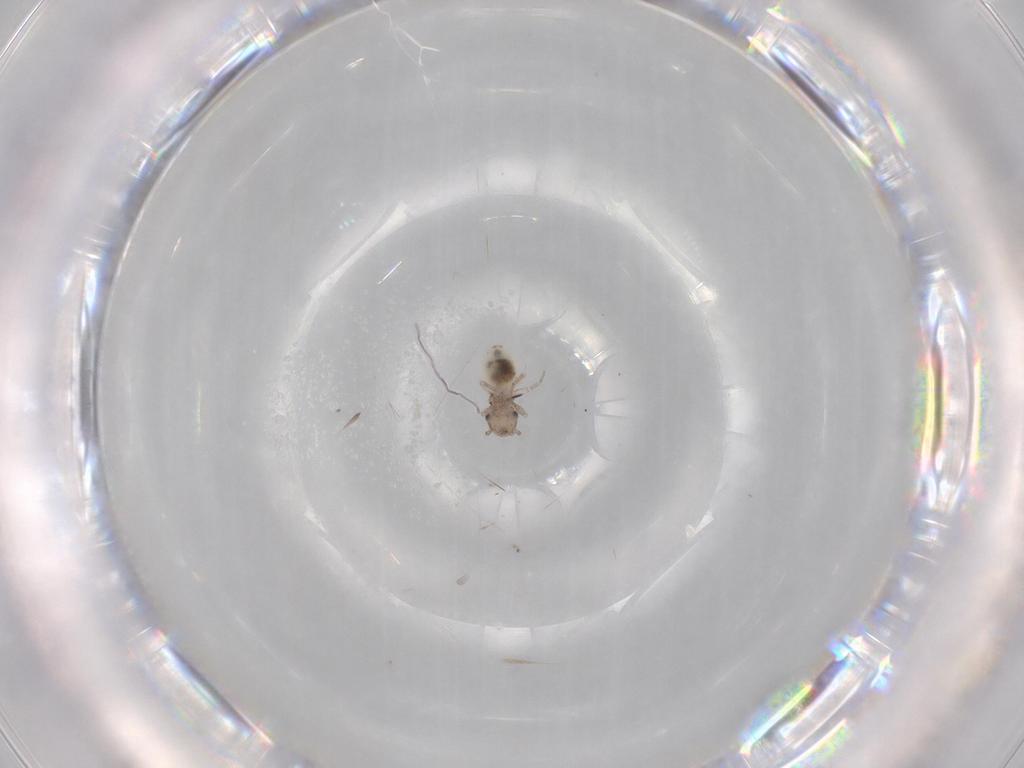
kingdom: Animalia
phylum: Arthropoda
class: Insecta
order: Psocodea
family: Lepidopsocidae
